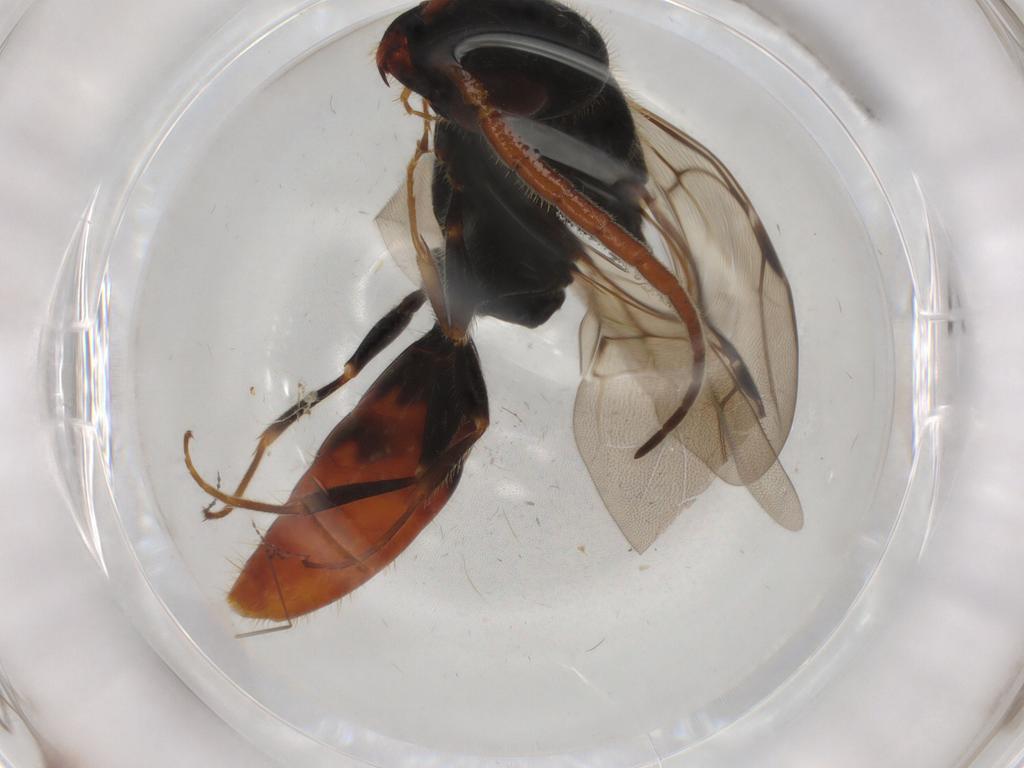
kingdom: Animalia
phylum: Arthropoda
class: Insecta
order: Hymenoptera
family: Bethylidae
